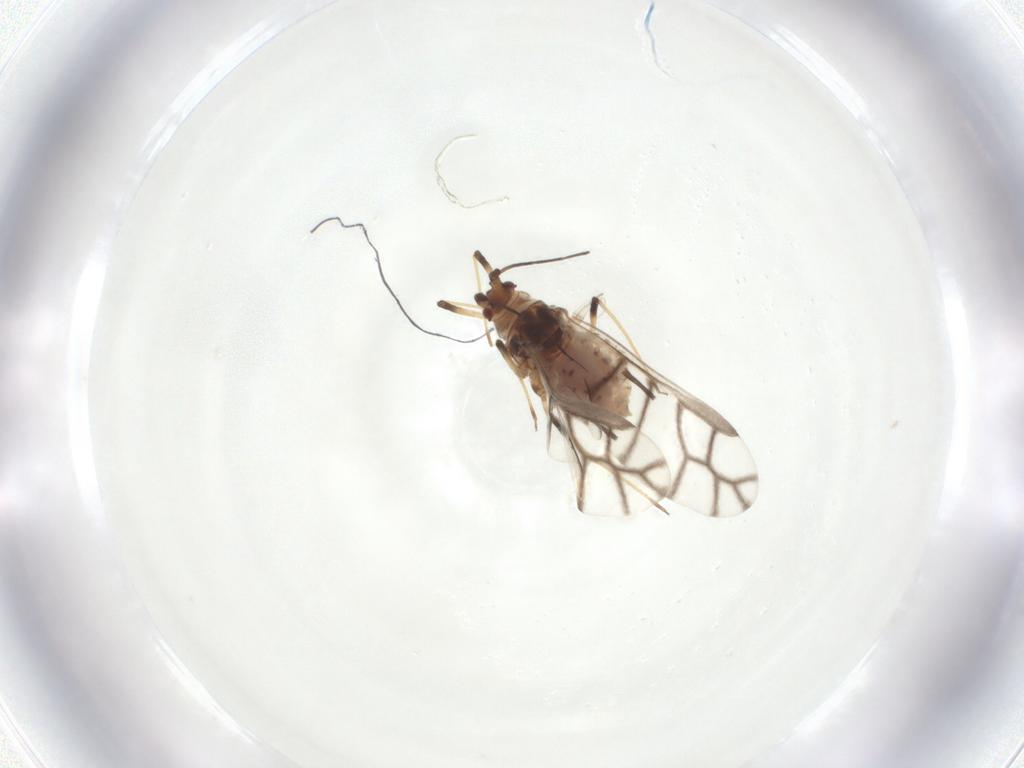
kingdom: Animalia
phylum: Arthropoda
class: Insecta
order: Hemiptera
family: Aphididae
